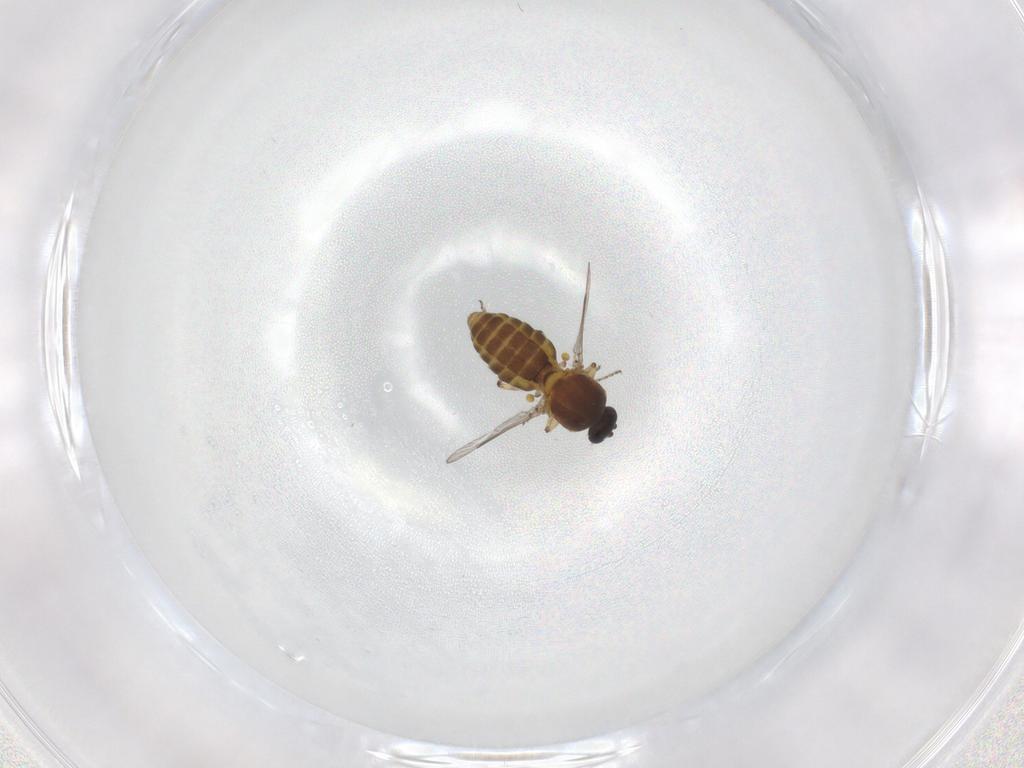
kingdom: Animalia
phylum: Arthropoda
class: Insecta
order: Diptera
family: Ceratopogonidae
